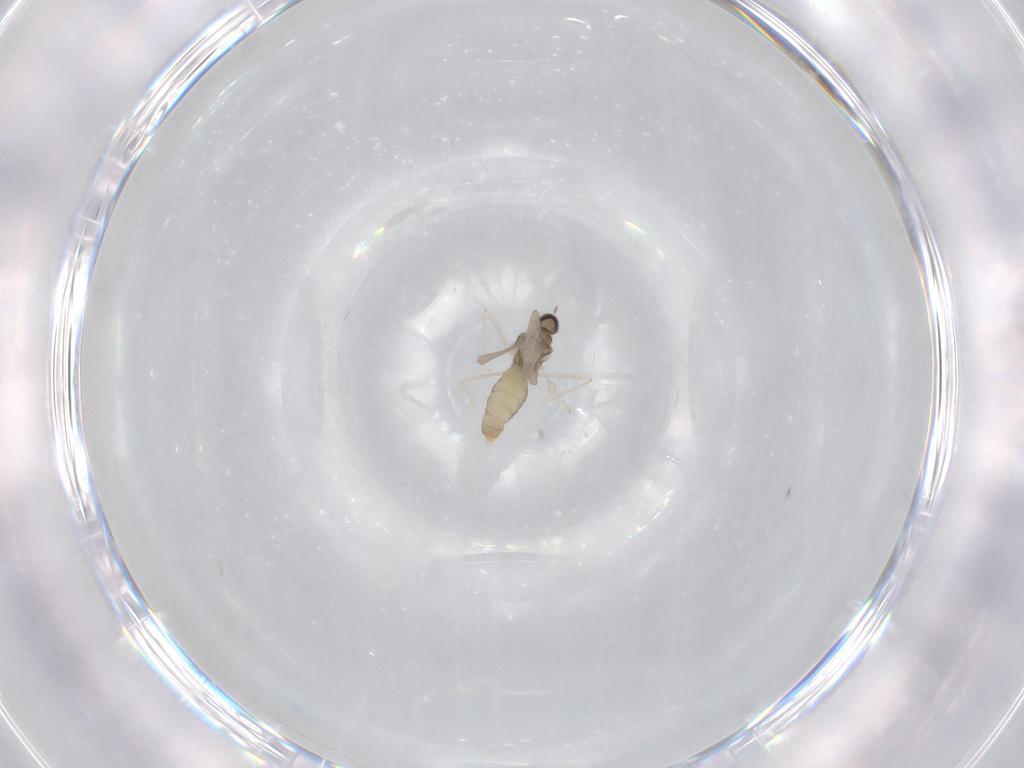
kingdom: Animalia
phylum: Arthropoda
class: Insecta
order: Diptera
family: Cecidomyiidae
